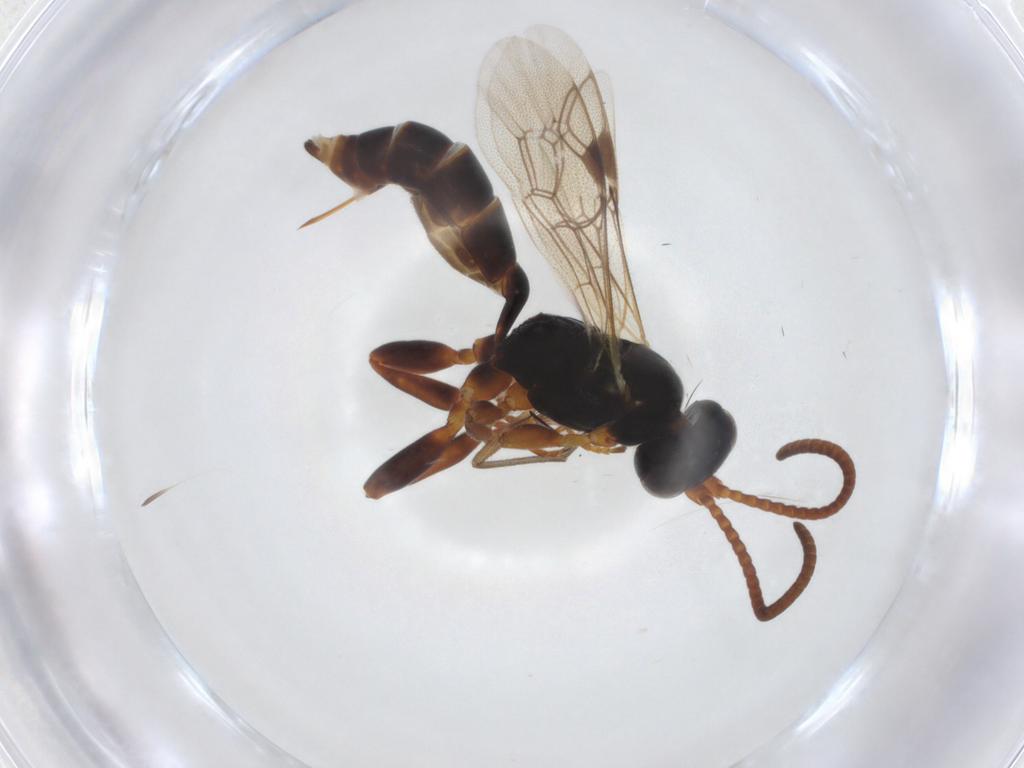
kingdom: Animalia
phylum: Arthropoda
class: Insecta
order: Hymenoptera
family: Ichneumonidae
